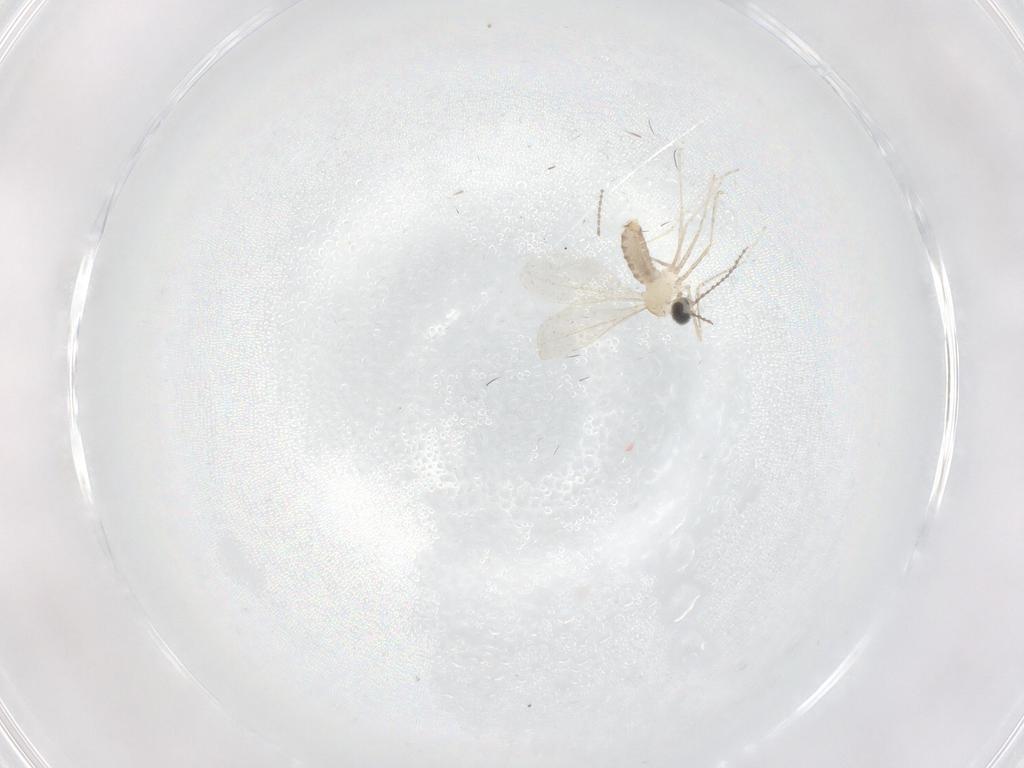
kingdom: Animalia
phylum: Arthropoda
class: Insecta
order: Diptera
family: Cecidomyiidae
